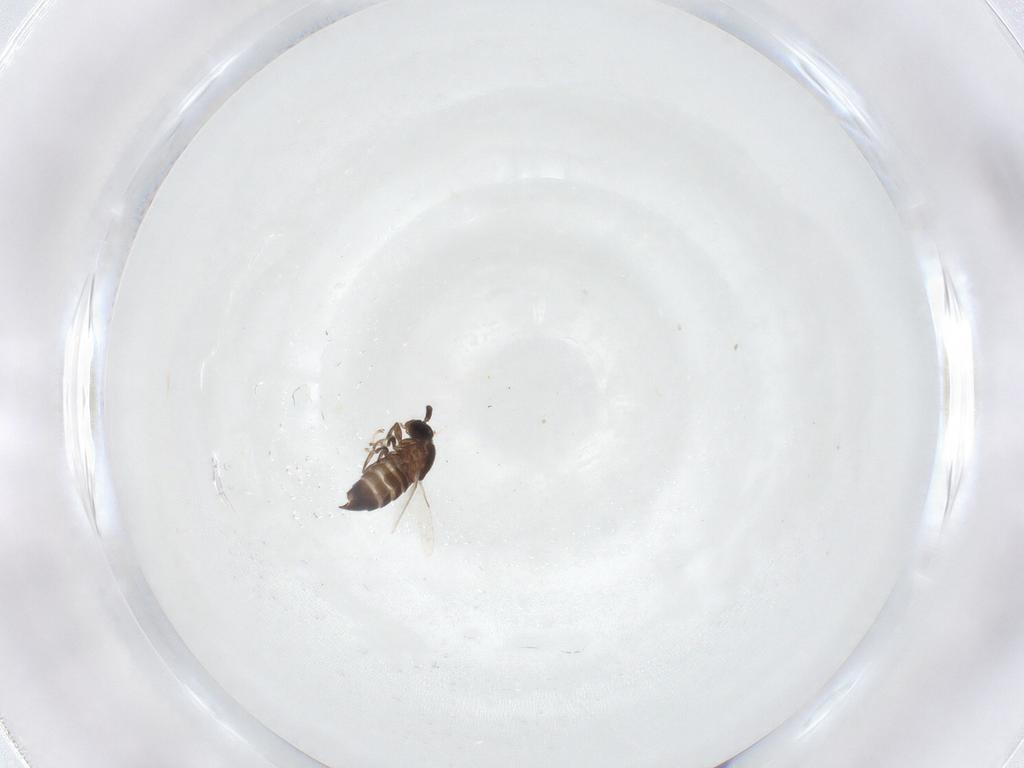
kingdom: Animalia
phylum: Arthropoda
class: Insecta
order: Diptera
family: Scatopsidae
